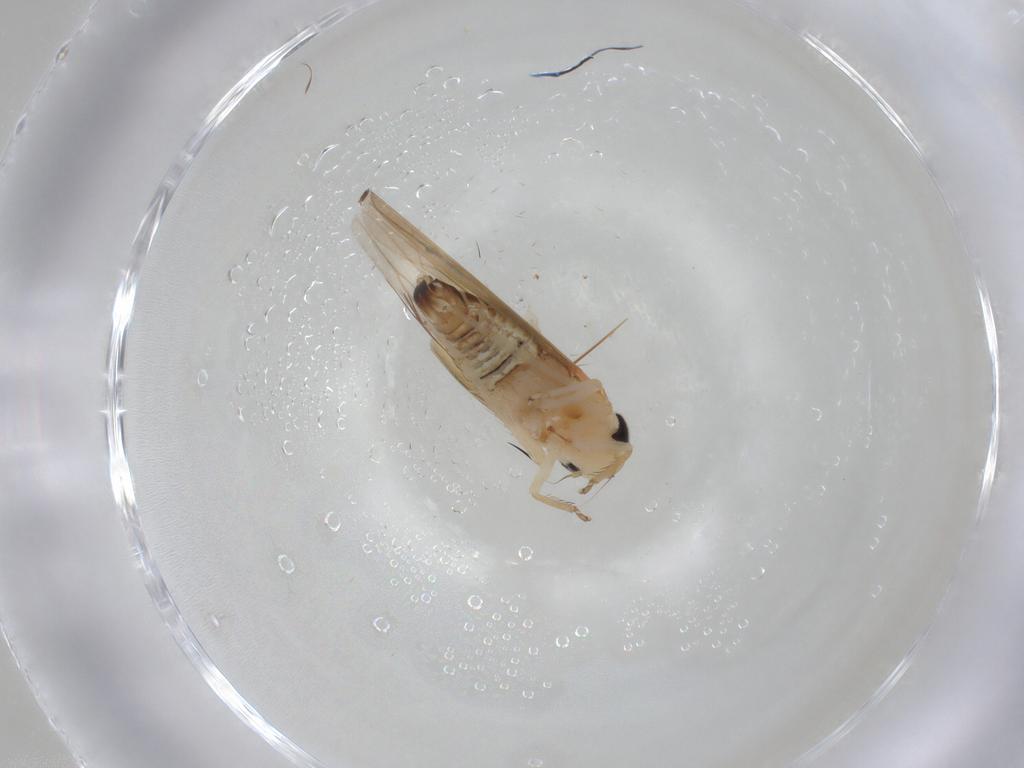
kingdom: Animalia
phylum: Arthropoda
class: Insecta
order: Hemiptera
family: Cicadellidae
